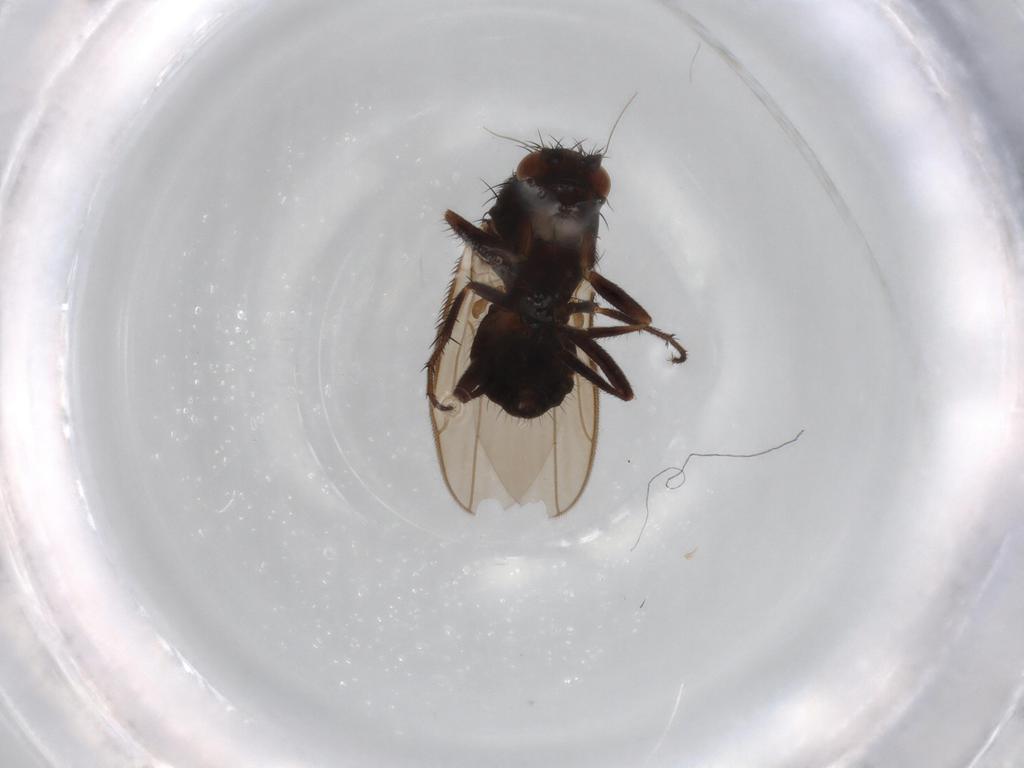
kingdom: Animalia
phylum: Arthropoda
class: Insecta
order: Diptera
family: Sphaeroceridae
